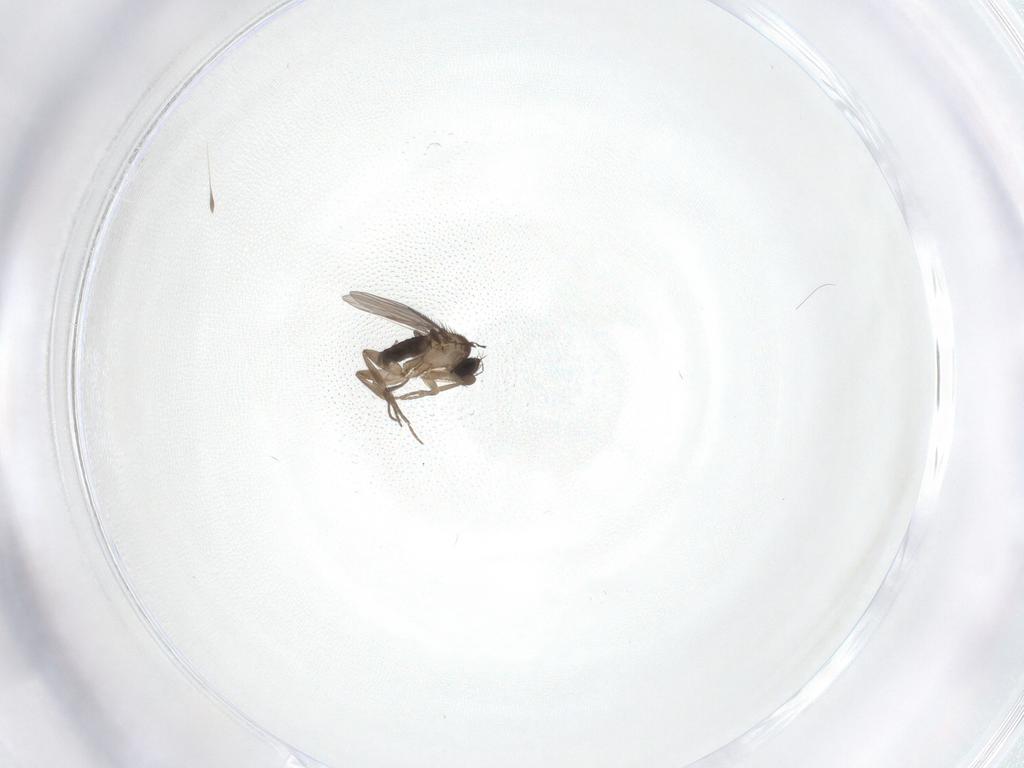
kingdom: Animalia
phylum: Arthropoda
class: Insecta
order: Diptera
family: Phoridae
